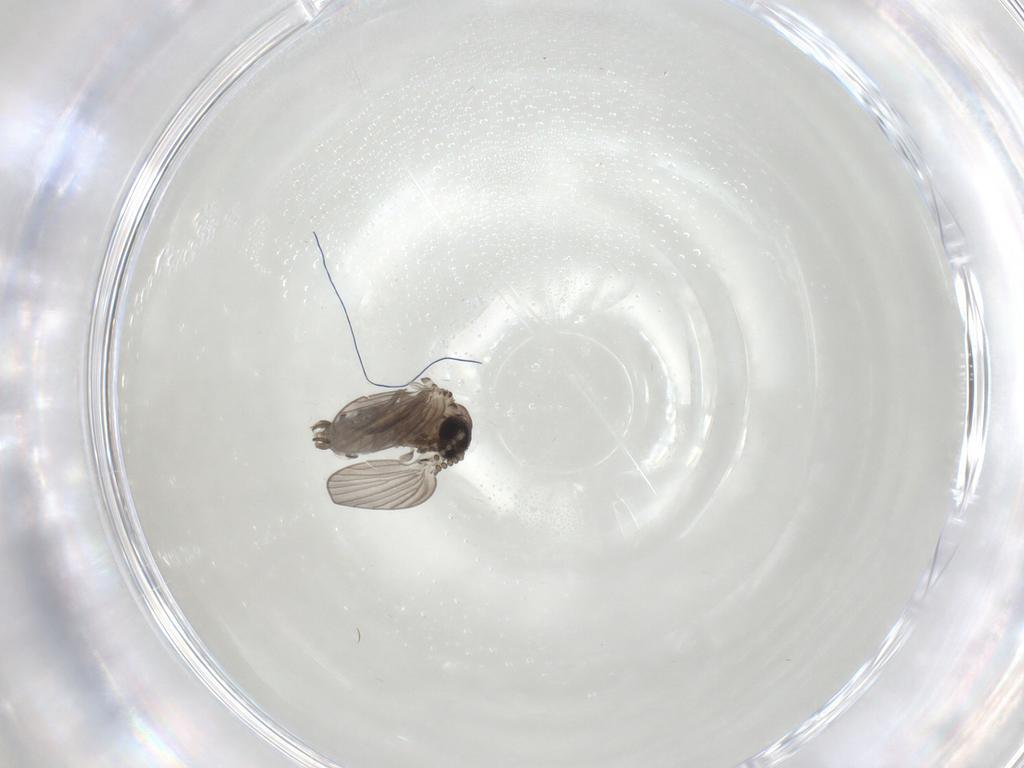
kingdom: Animalia
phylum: Arthropoda
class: Insecta
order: Diptera
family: Psychodidae
